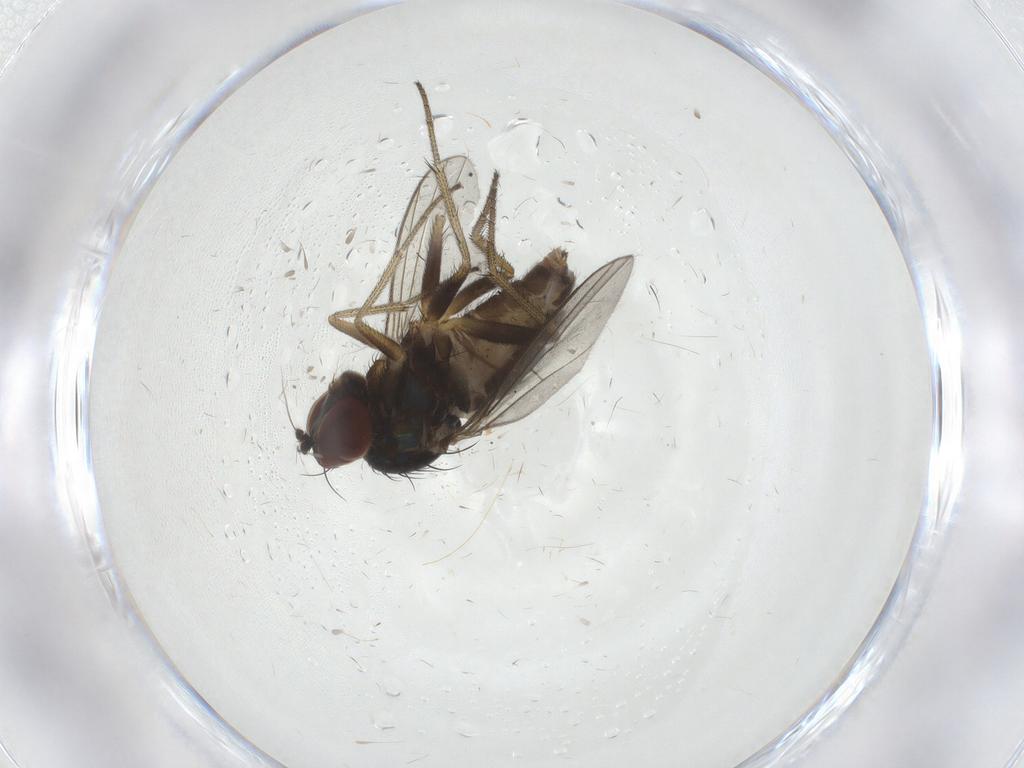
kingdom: Animalia
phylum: Arthropoda
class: Insecta
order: Diptera
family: Dolichopodidae
